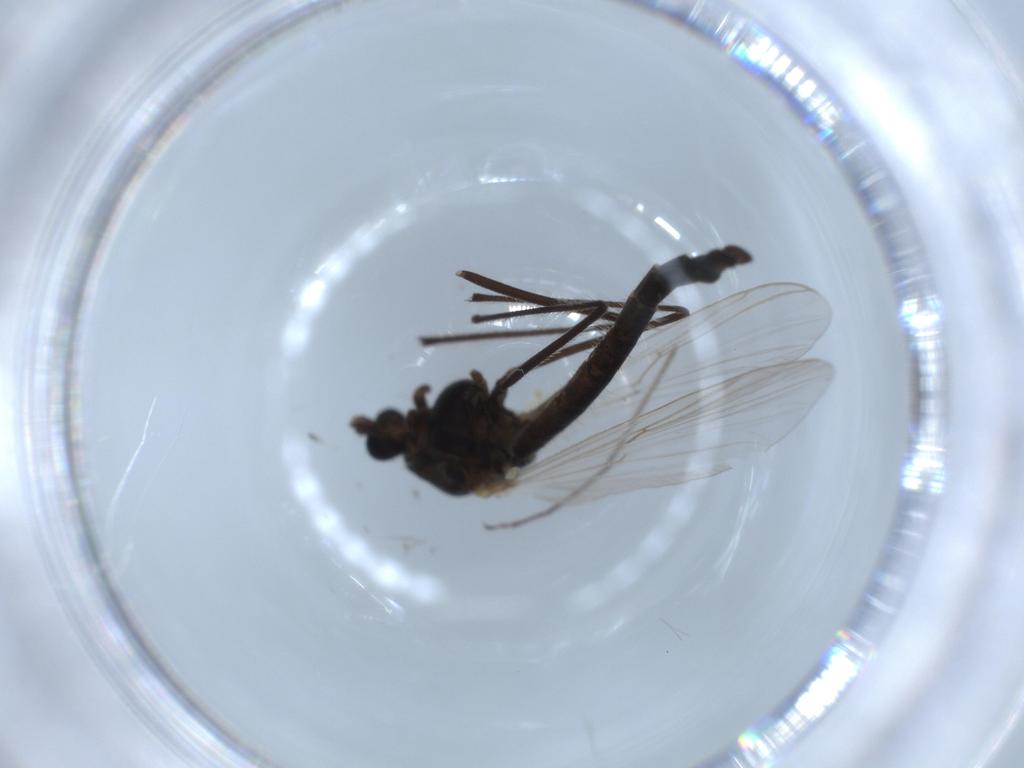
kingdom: Animalia
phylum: Arthropoda
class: Insecta
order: Diptera
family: Chironomidae
